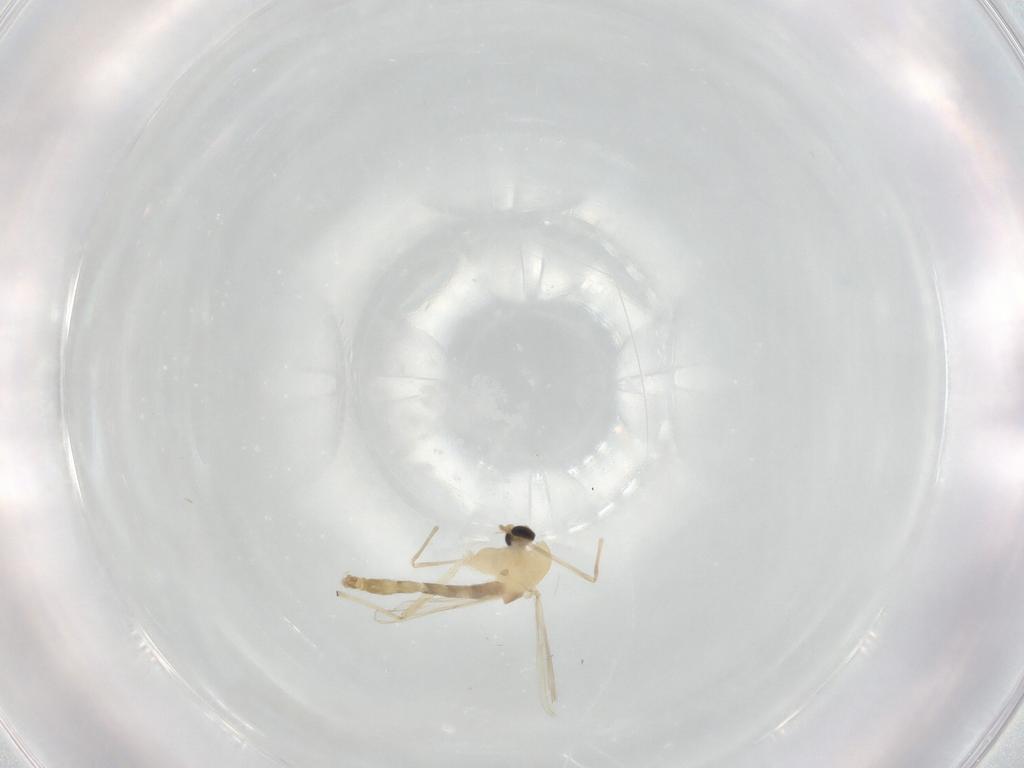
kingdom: Animalia
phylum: Arthropoda
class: Insecta
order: Diptera
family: Chironomidae
